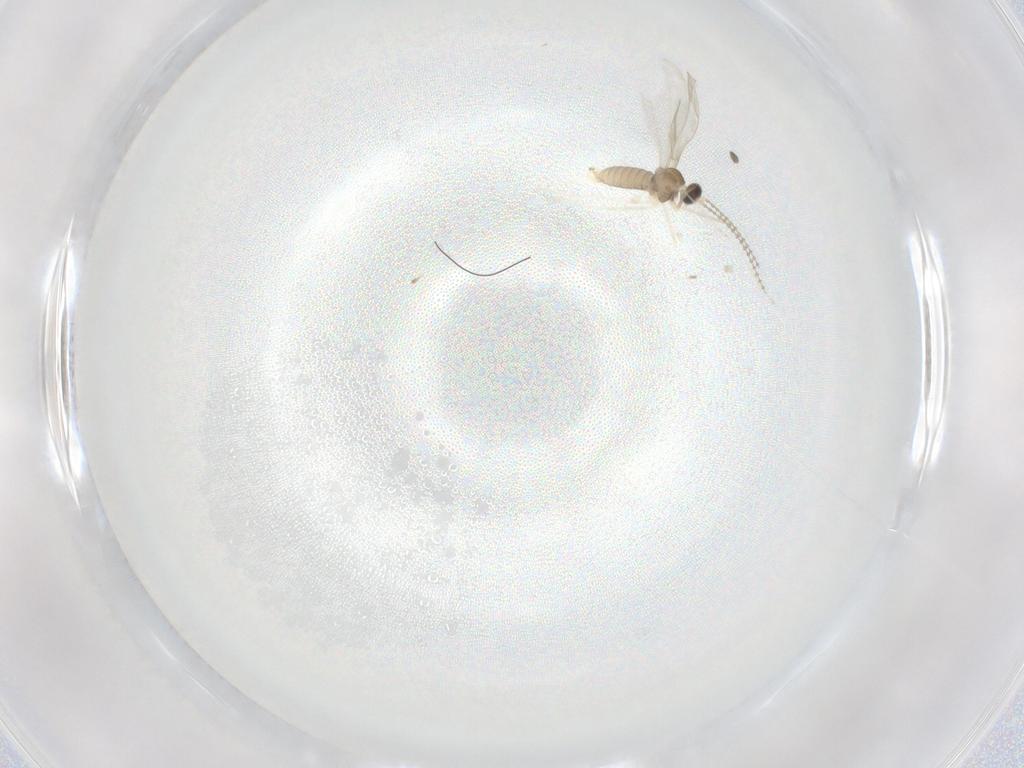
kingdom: Animalia
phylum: Arthropoda
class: Insecta
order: Diptera
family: Cecidomyiidae
